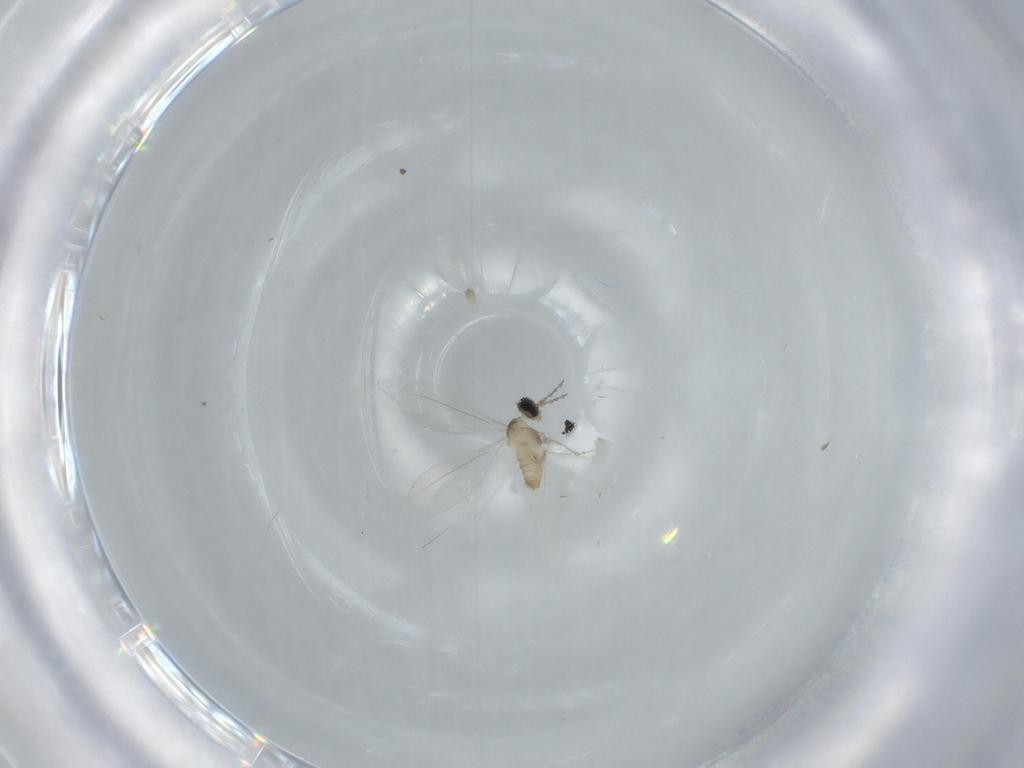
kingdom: Animalia
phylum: Arthropoda
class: Insecta
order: Diptera
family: Cecidomyiidae
